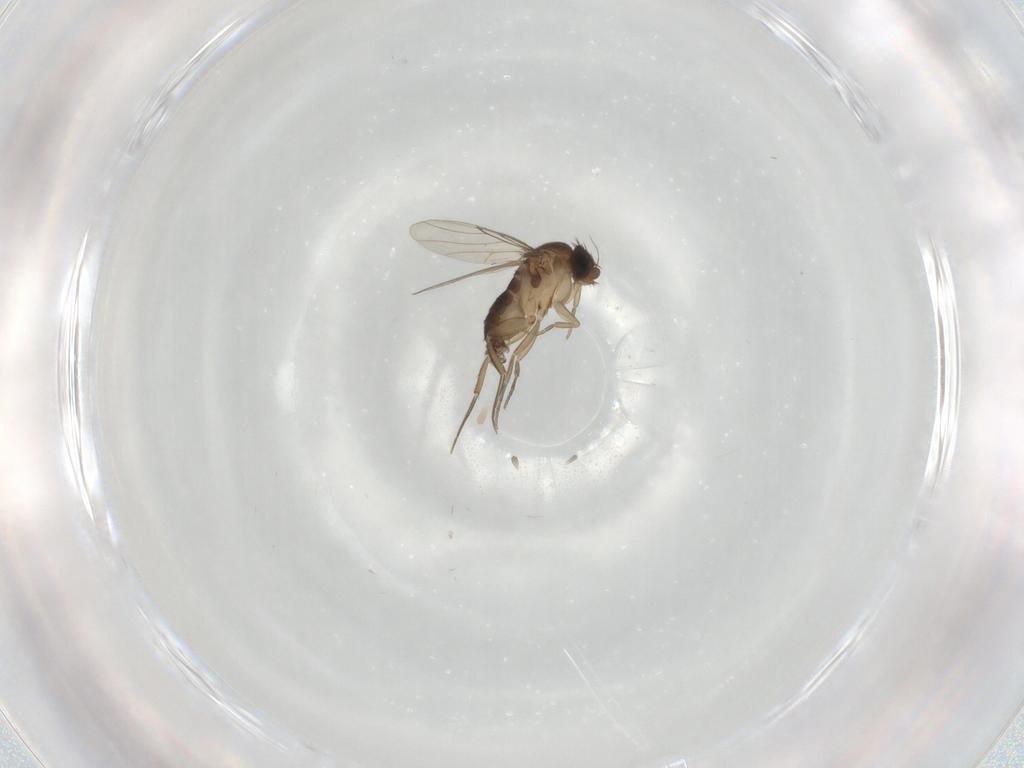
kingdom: Animalia
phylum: Arthropoda
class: Insecta
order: Diptera
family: Phoridae
